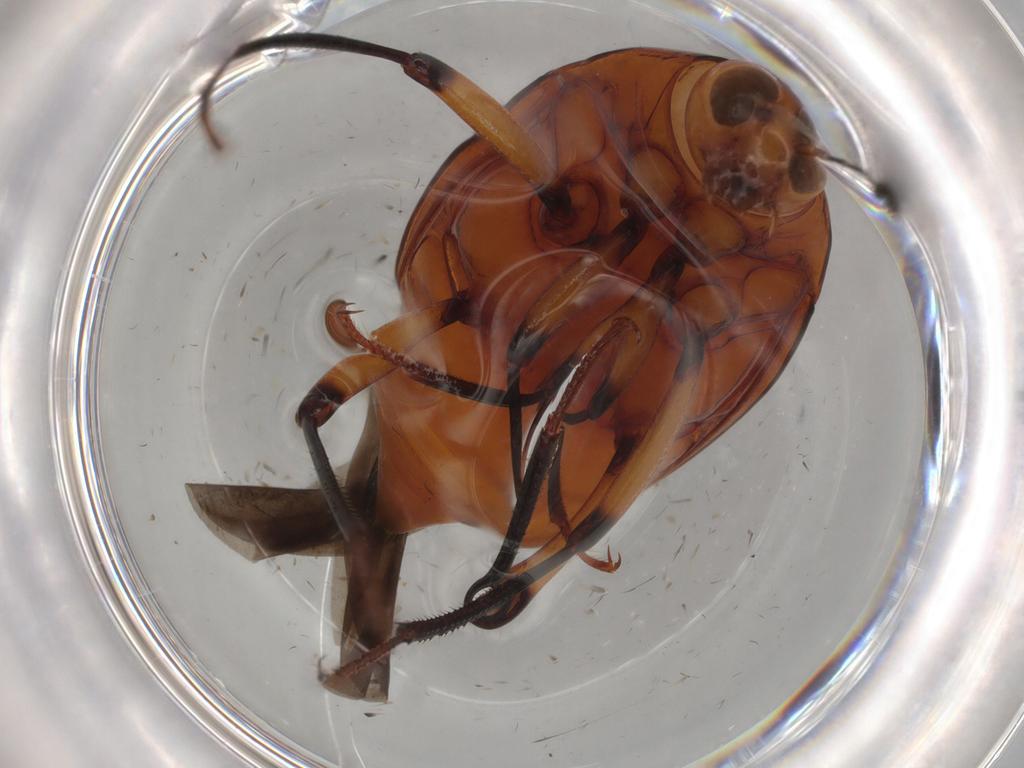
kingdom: Animalia
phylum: Arthropoda
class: Insecta
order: Coleoptera
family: Staphylinidae
